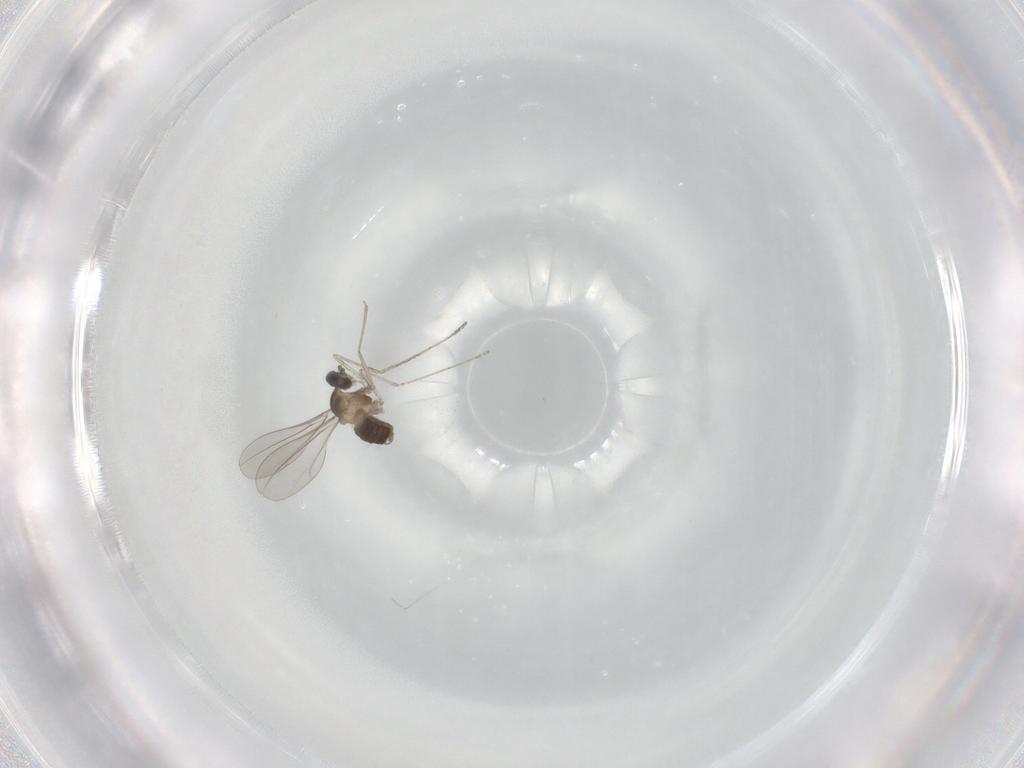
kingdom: Animalia
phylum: Arthropoda
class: Insecta
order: Diptera
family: Cecidomyiidae
